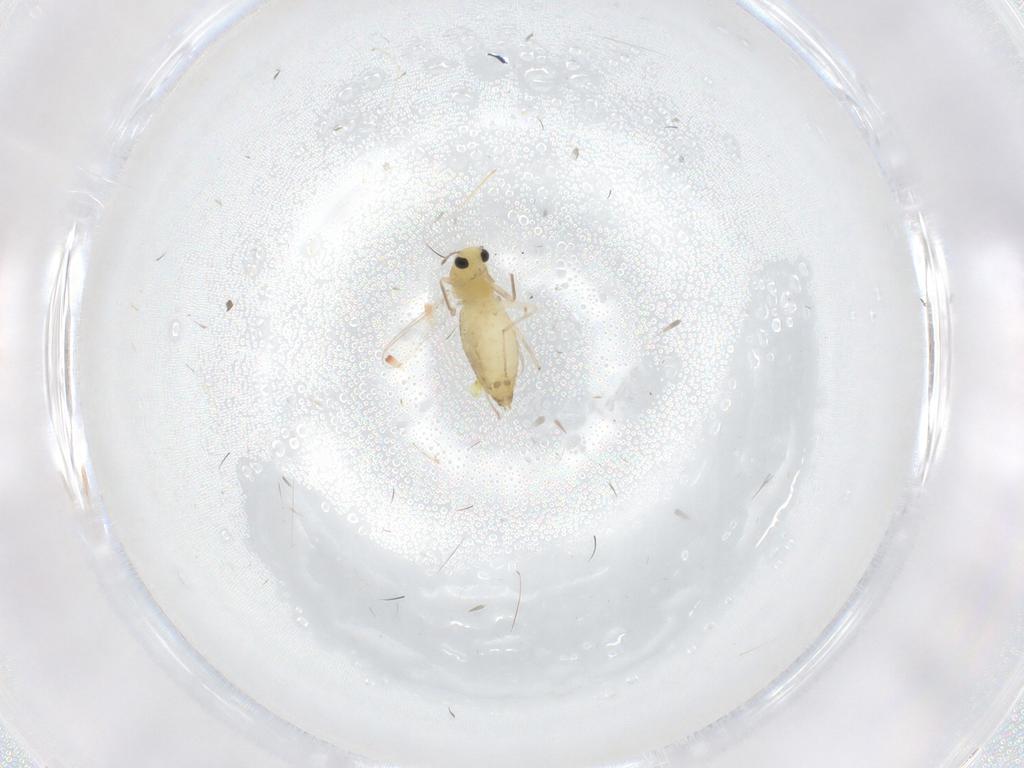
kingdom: Animalia
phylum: Arthropoda
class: Insecta
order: Diptera
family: Chironomidae
